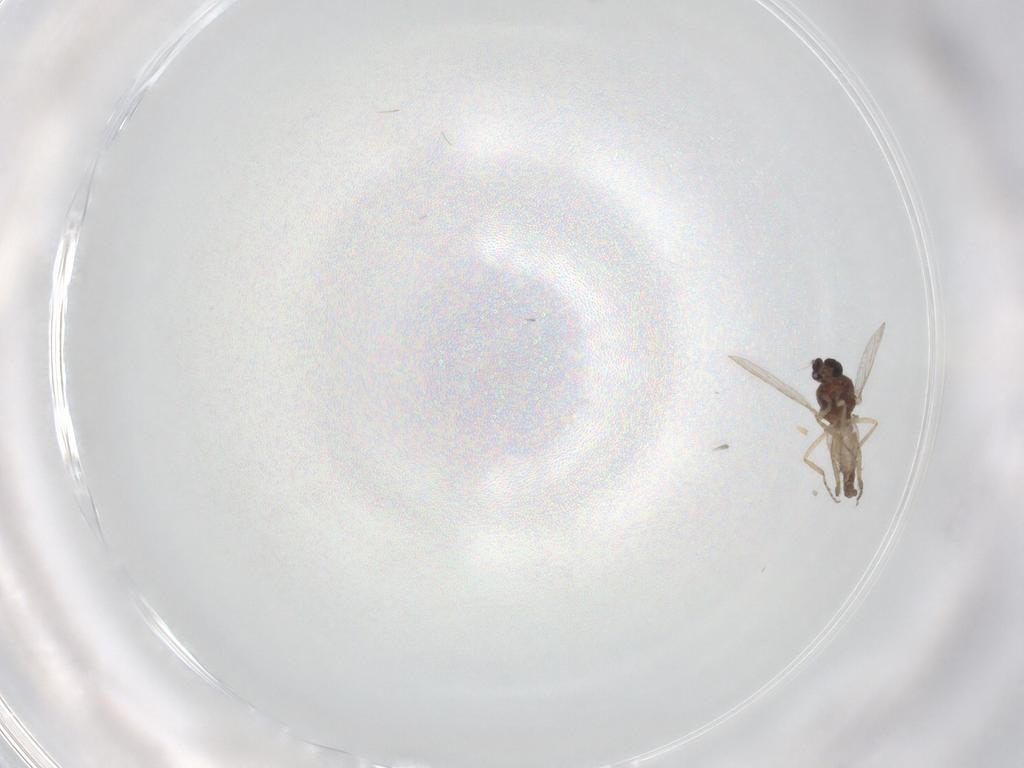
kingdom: Animalia
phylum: Arthropoda
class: Insecta
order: Diptera
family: Ceratopogonidae
